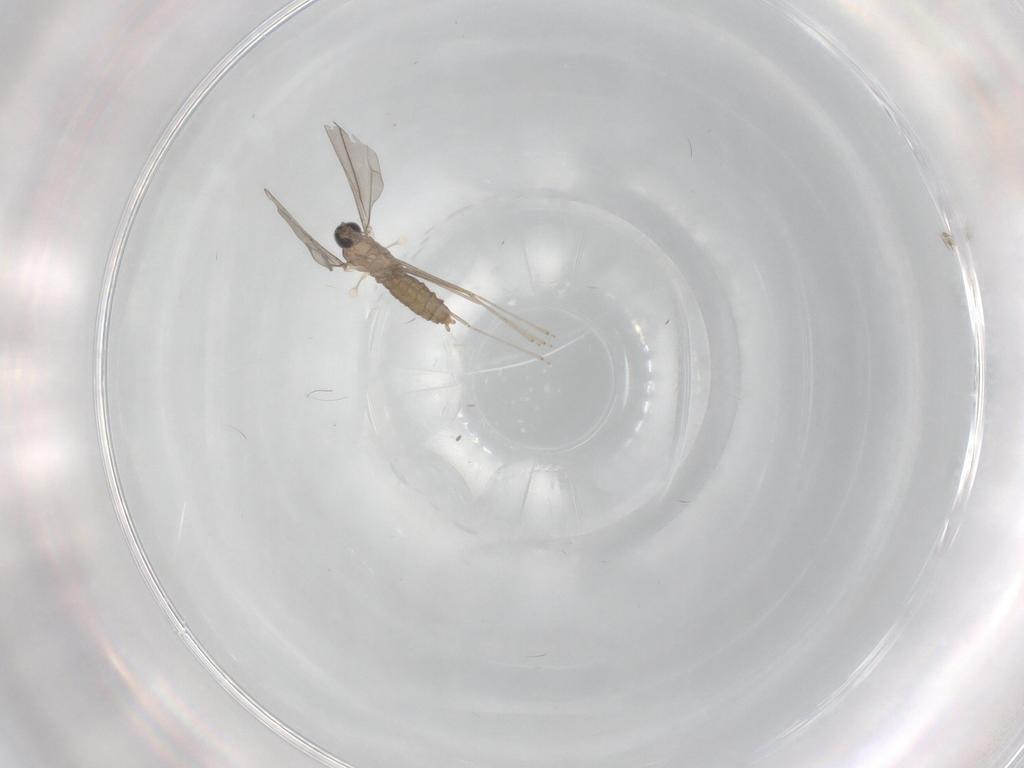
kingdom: Animalia
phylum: Arthropoda
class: Insecta
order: Diptera
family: Cecidomyiidae
